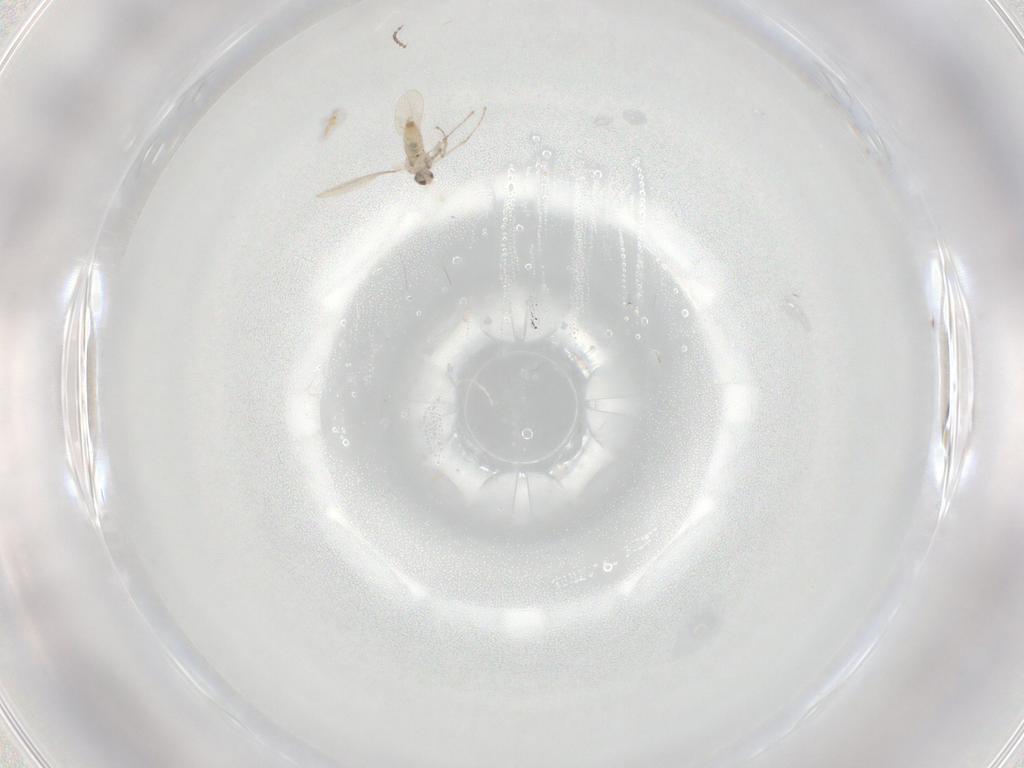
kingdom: Animalia
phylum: Arthropoda
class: Insecta
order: Diptera
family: Cecidomyiidae
